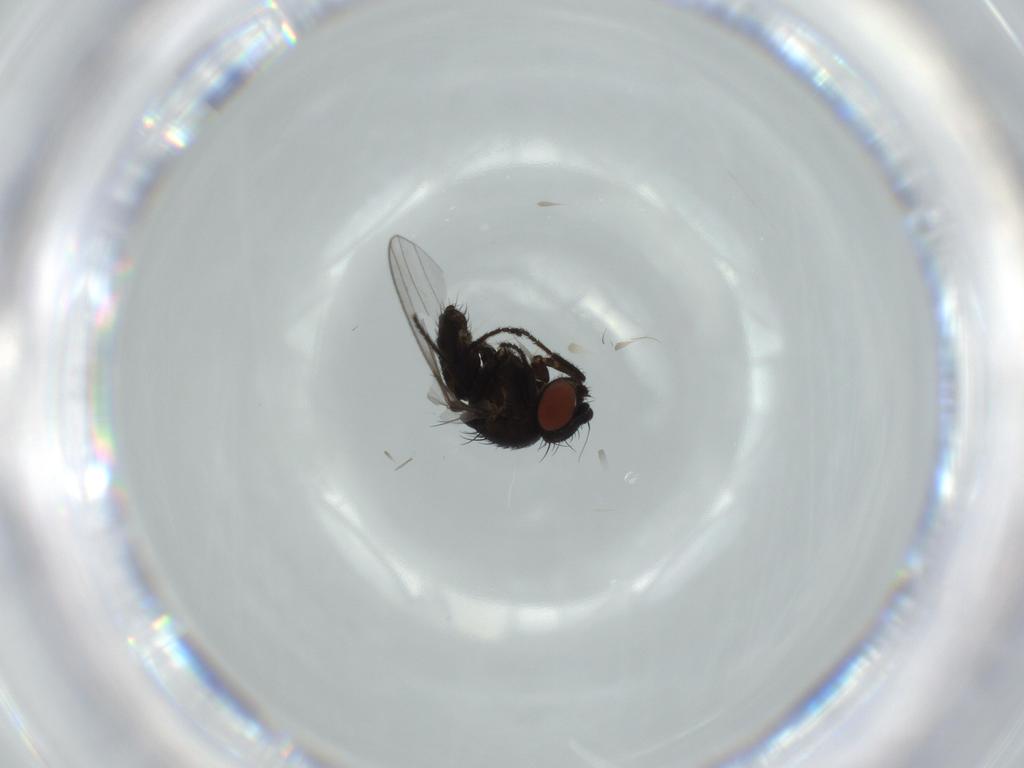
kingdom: Animalia
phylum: Arthropoda
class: Insecta
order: Diptera
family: Milichiidae
